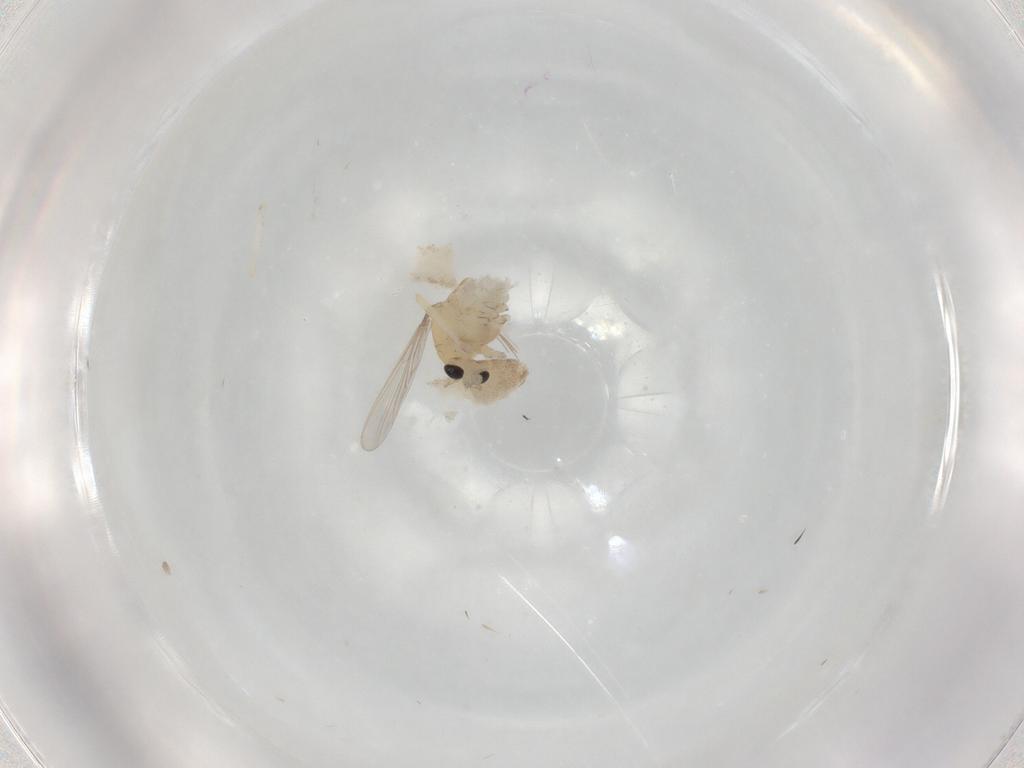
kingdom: Animalia
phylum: Arthropoda
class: Insecta
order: Diptera
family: Chironomidae
